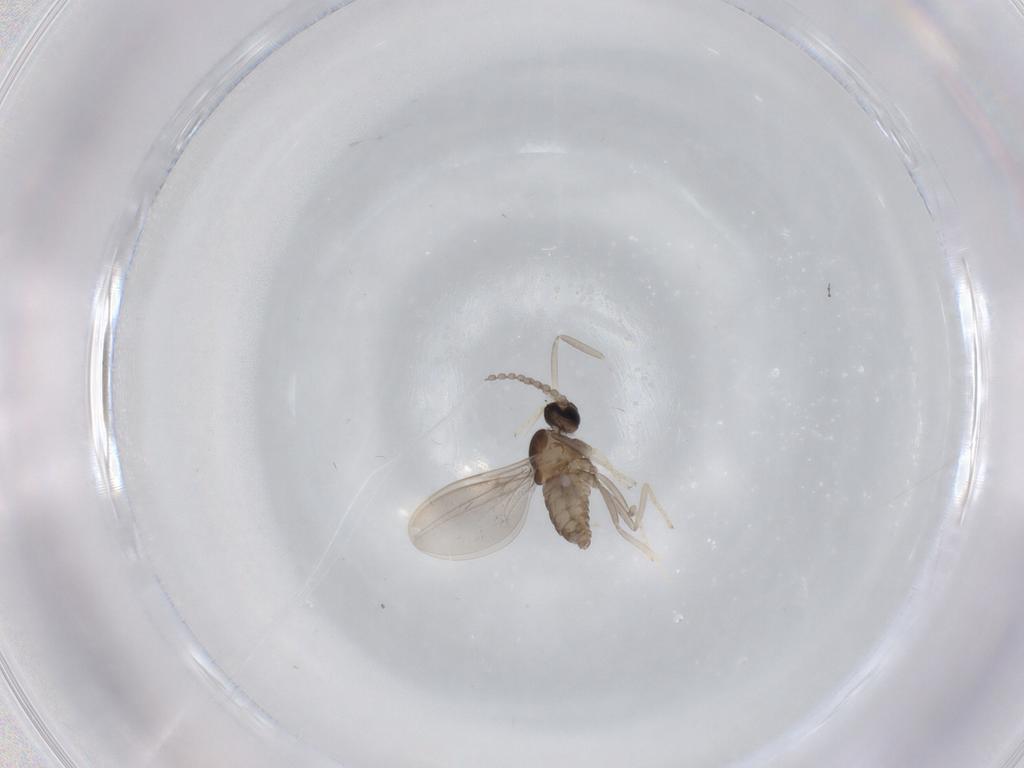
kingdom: Animalia
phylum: Arthropoda
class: Insecta
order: Diptera
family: Cecidomyiidae
